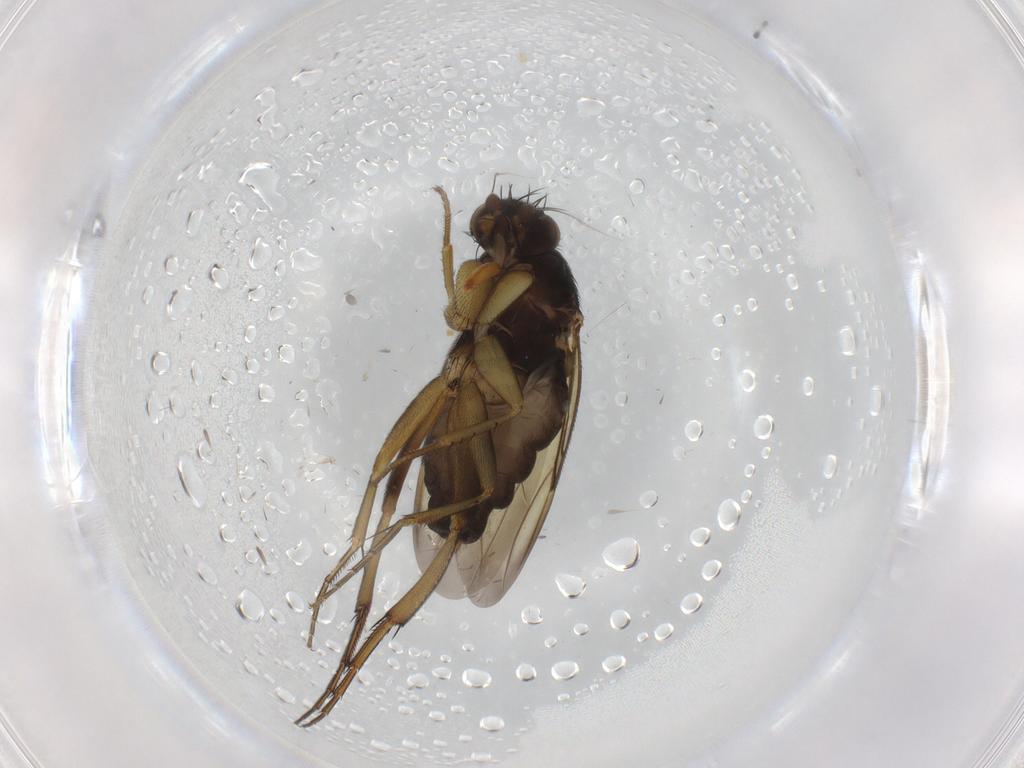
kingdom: Animalia
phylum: Arthropoda
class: Insecta
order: Diptera
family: Phoridae
